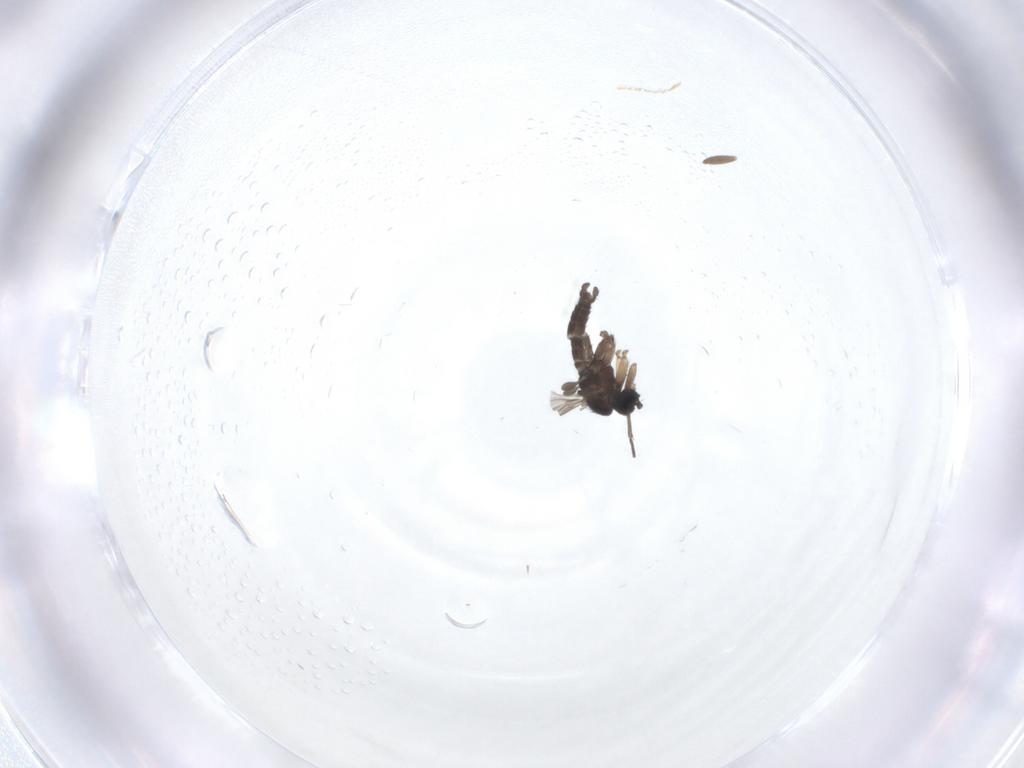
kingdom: Animalia
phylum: Arthropoda
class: Insecta
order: Diptera
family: Sciaridae
